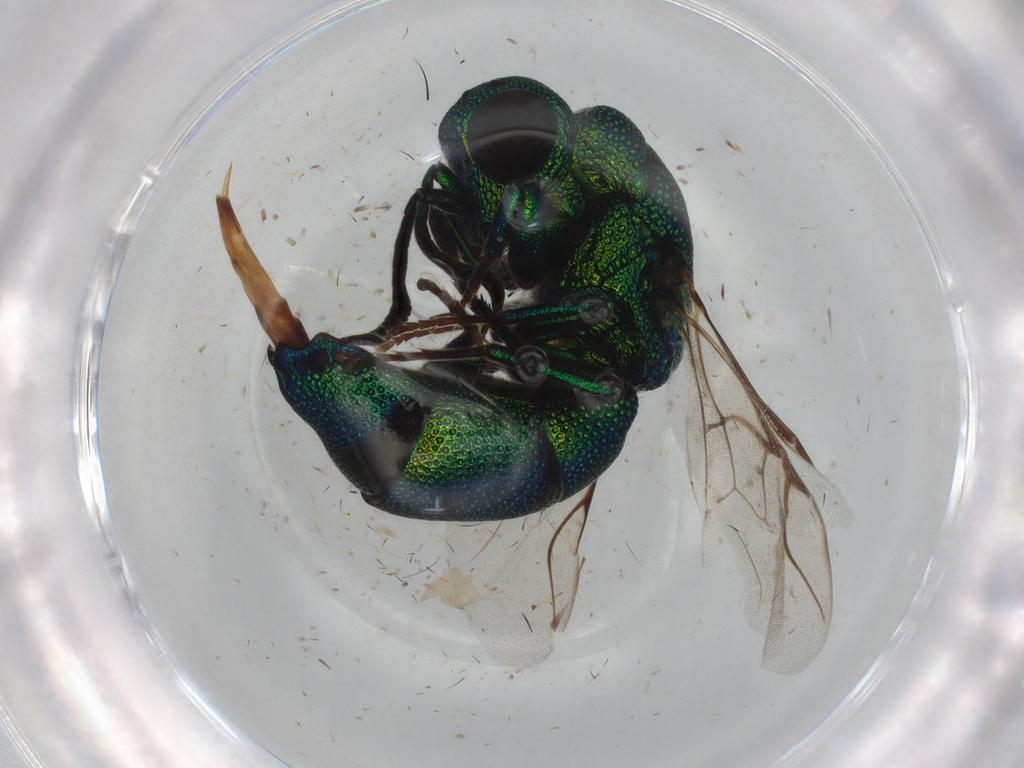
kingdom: Animalia
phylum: Arthropoda
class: Insecta
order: Hymenoptera
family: Chrysididae
